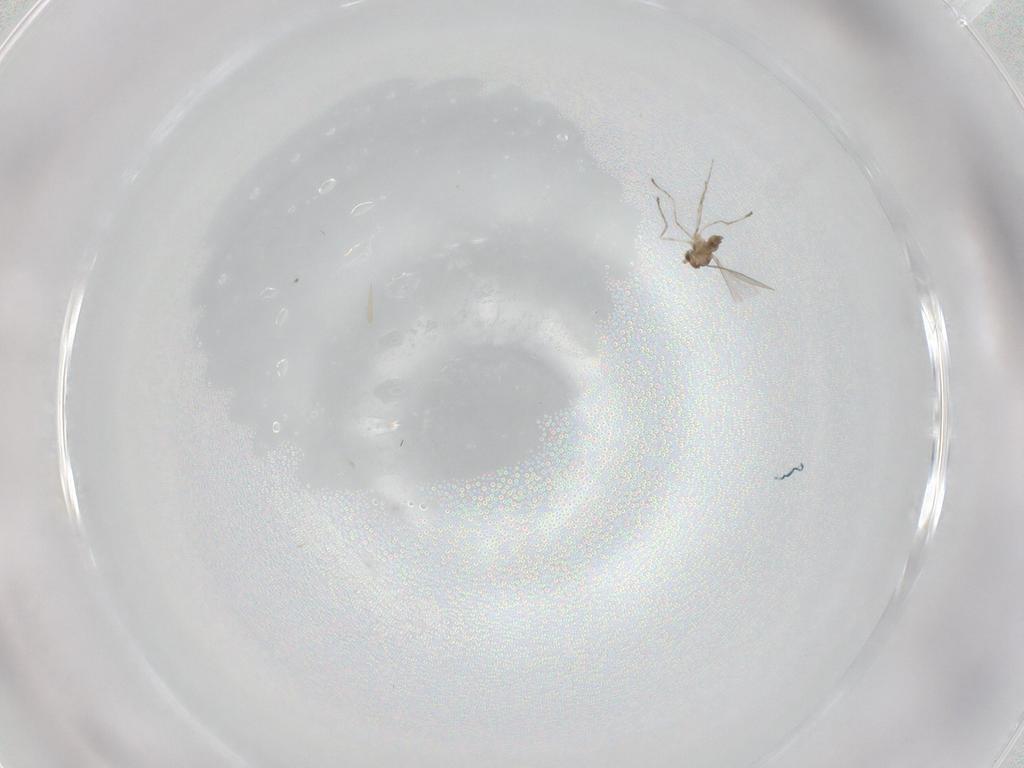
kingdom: Animalia
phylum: Arthropoda
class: Insecta
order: Diptera
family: Cecidomyiidae
